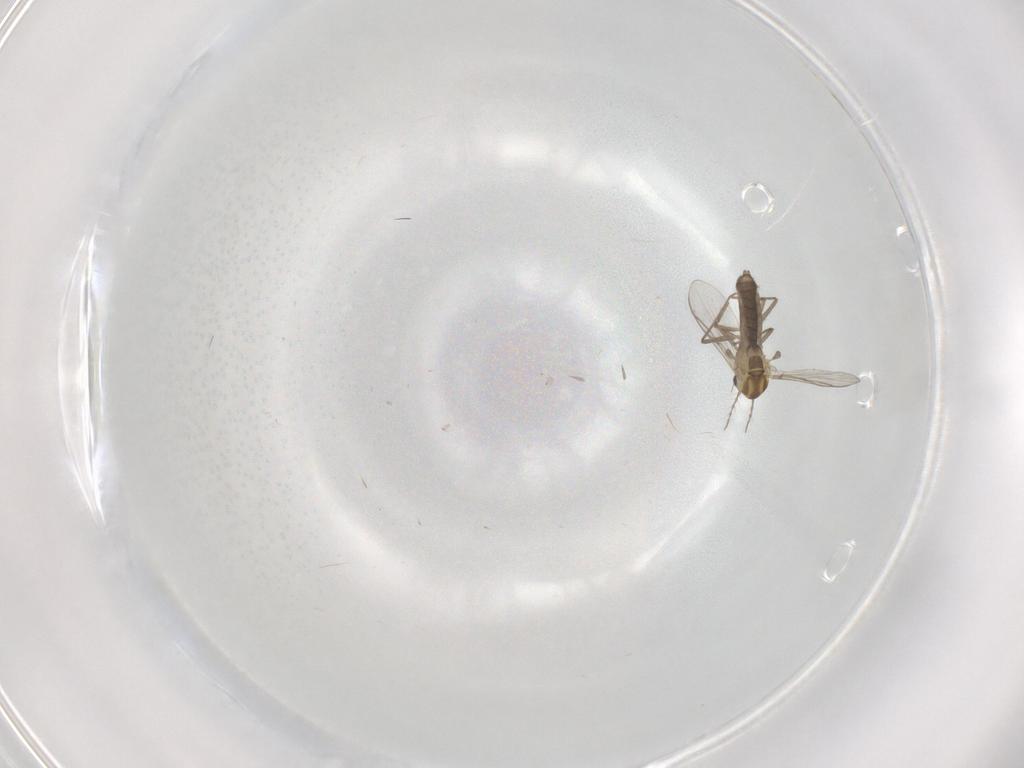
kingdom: Animalia
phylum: Arthropoda
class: Insecta
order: Diptera
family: Chironomidae
